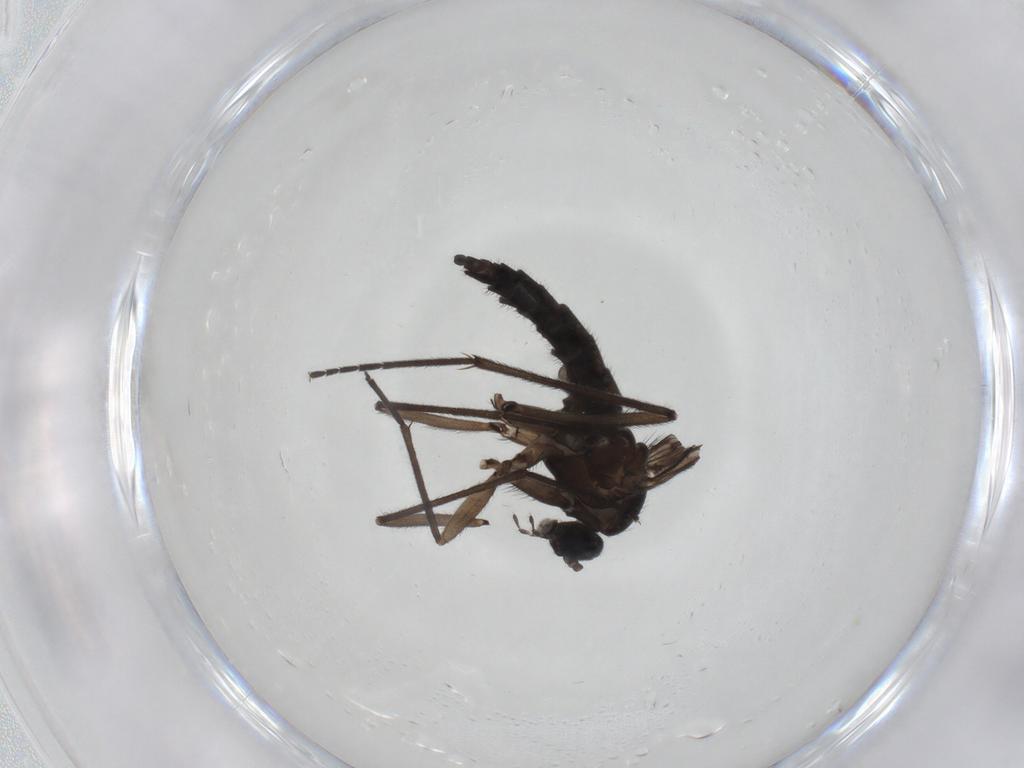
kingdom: Animalia
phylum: Arthropoda
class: Insecta
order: Diptera
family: Sciaridae
